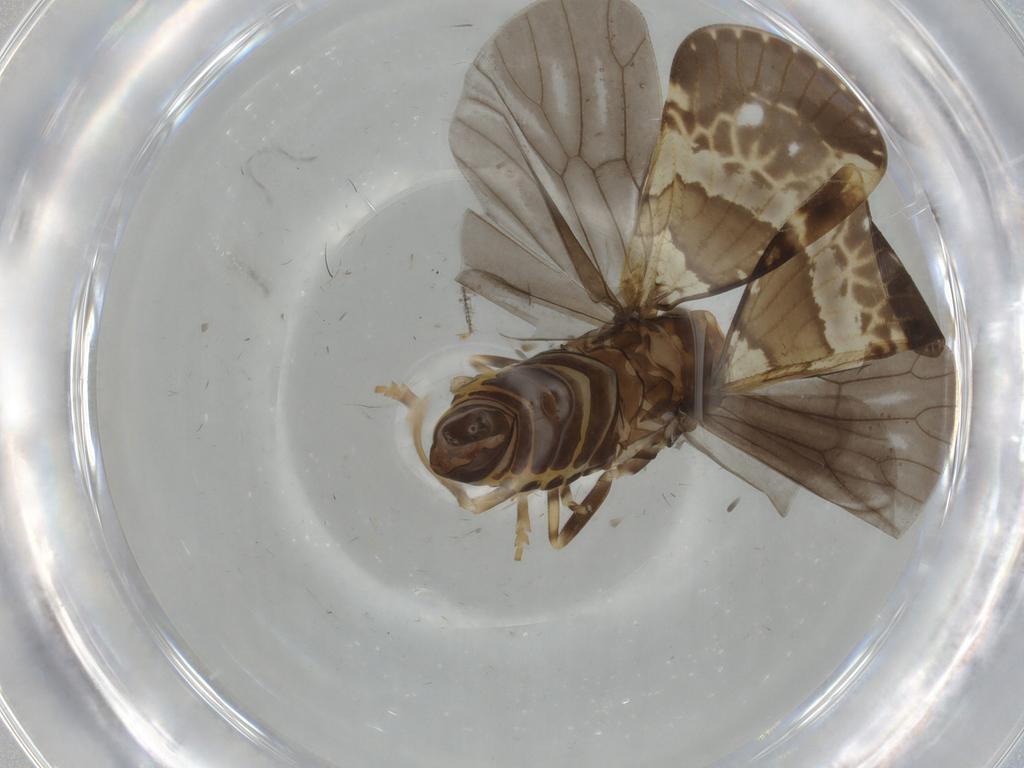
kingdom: Animalia
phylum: Arthropoda
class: Insecta
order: Hemiptera
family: Cixiidae
